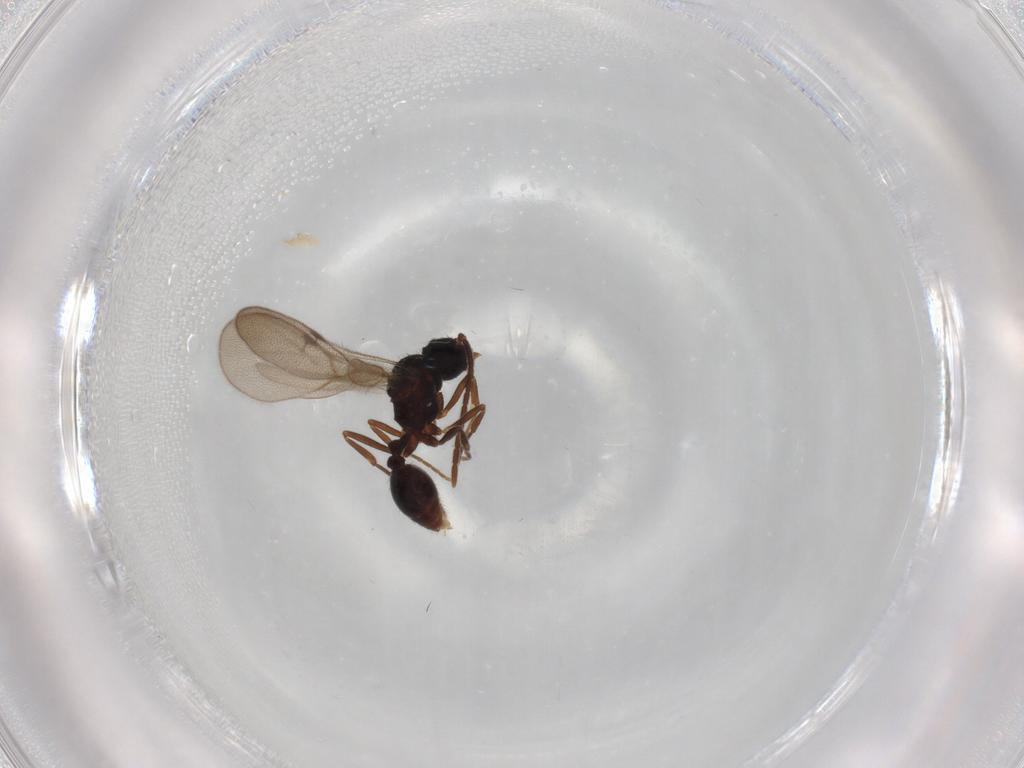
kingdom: Animalia
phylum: Arthropoda
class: Insecta
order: Hymenoptera
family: Formicidae
